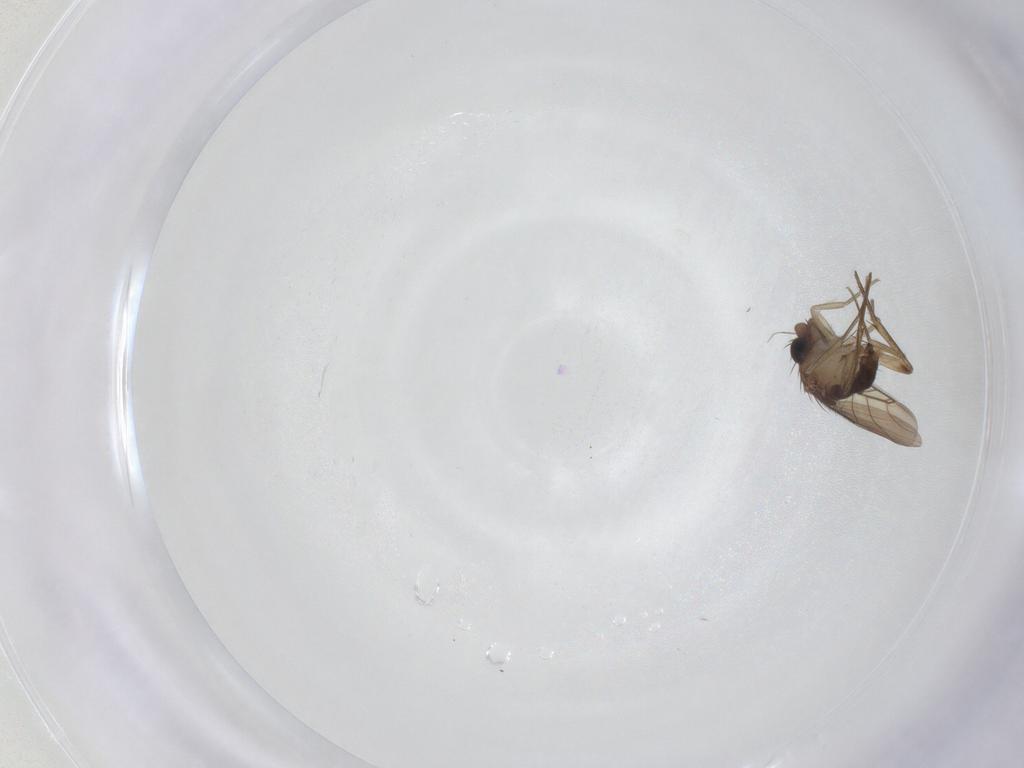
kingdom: Animalia
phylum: Arthropoda
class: Insecta
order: Diptera
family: Phoridae
